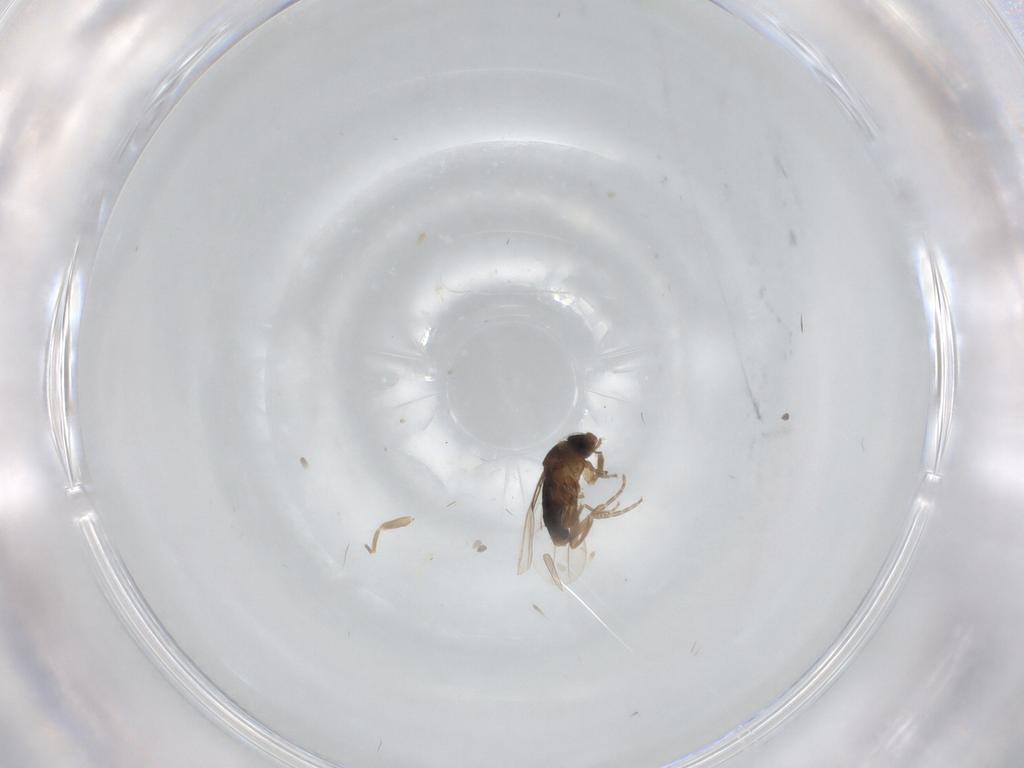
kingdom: Animalia
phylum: Arthropoda
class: Insecta
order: Diptera
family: Phoridae
